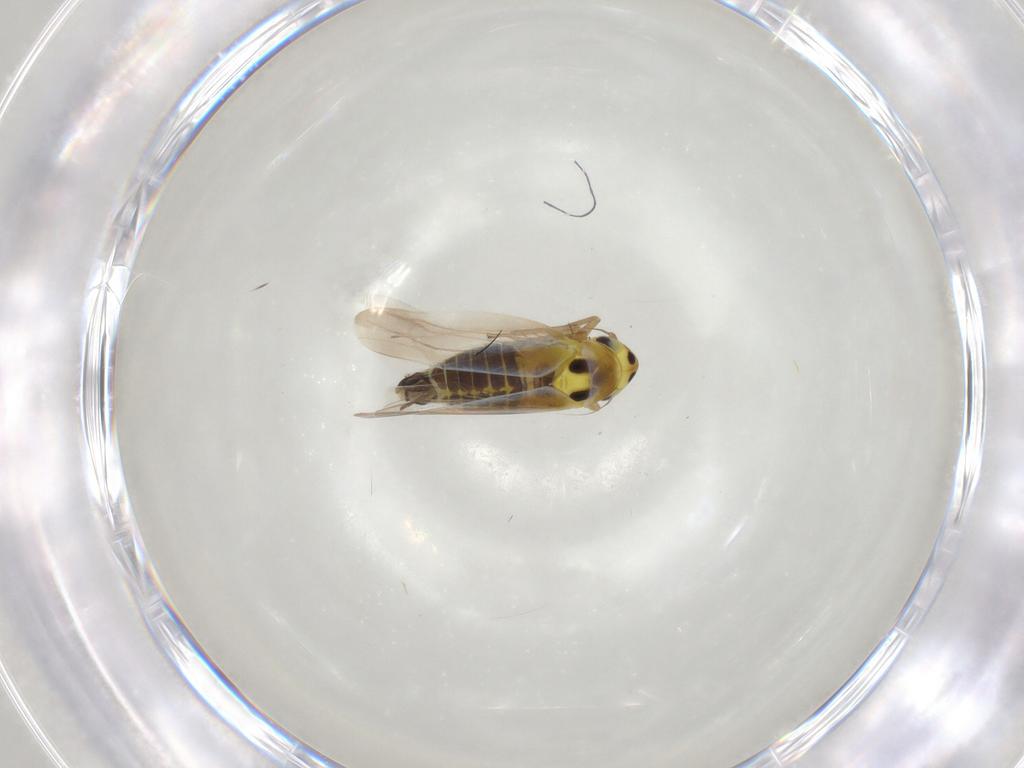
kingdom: Animalia
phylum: Arthropoda
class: Insecta
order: Hemiptera
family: Cicadellidae
